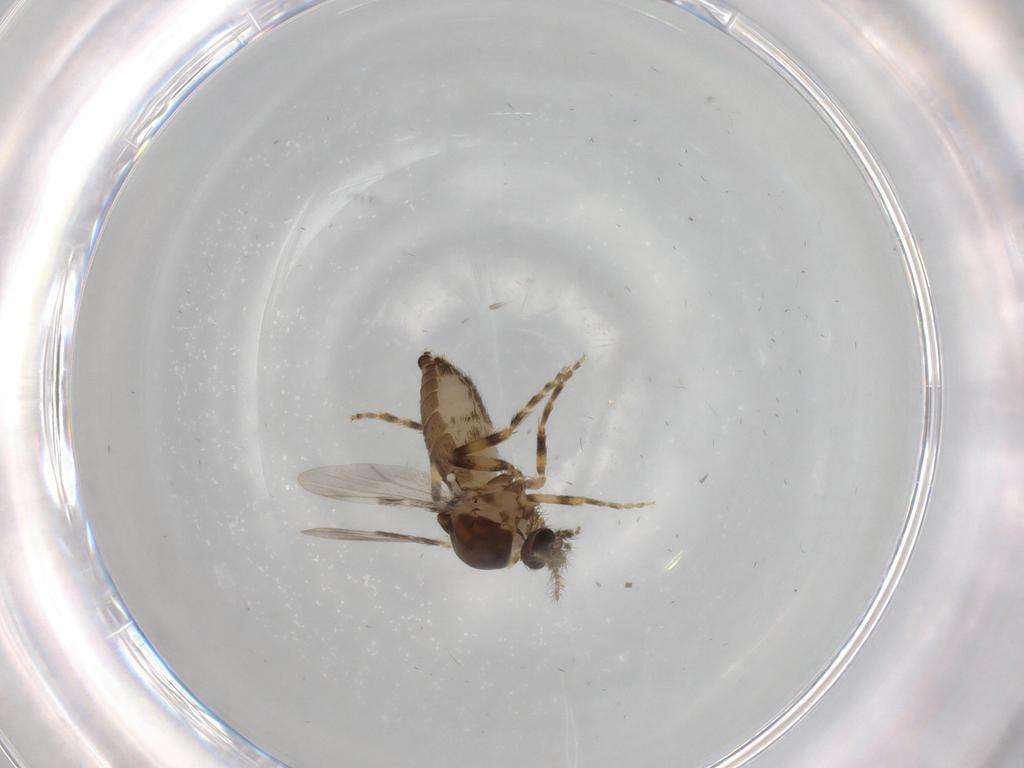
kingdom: Animalia
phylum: Arthropoda
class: Insecta
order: Diptera
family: Ceratopogonidae
